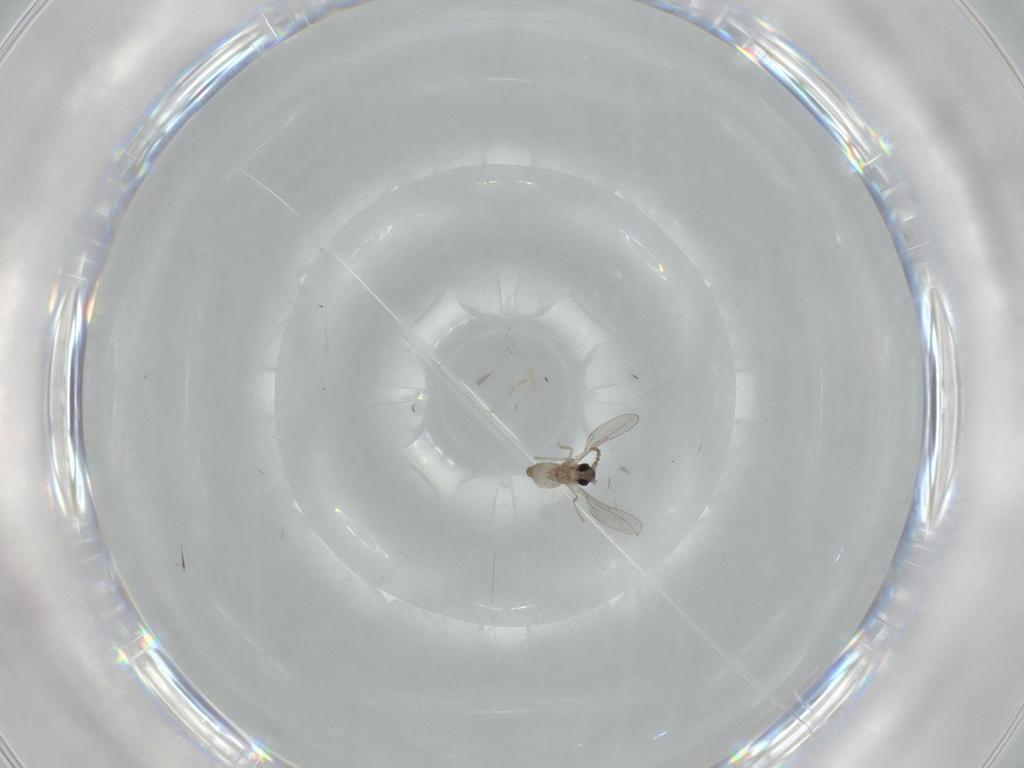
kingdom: Animalia
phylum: Arthropoda
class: Insecta
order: Diptera
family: Cecidomyiidae
